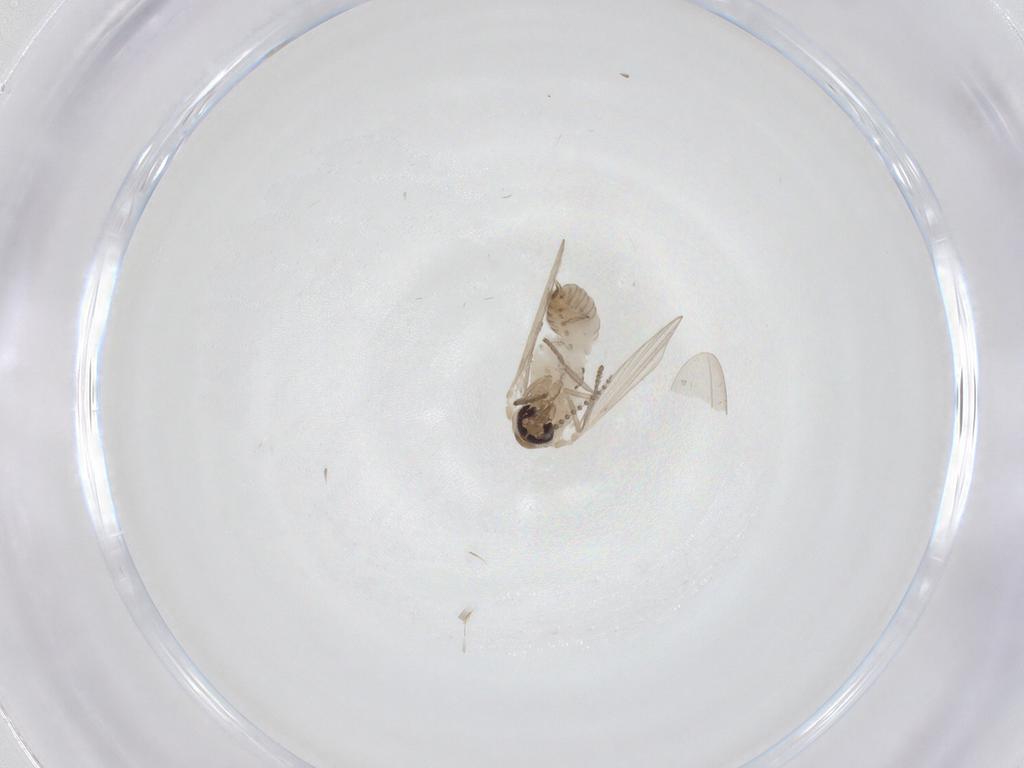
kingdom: Animalia
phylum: Arthropoda
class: Insecta
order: Diptera
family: Psychodidae
